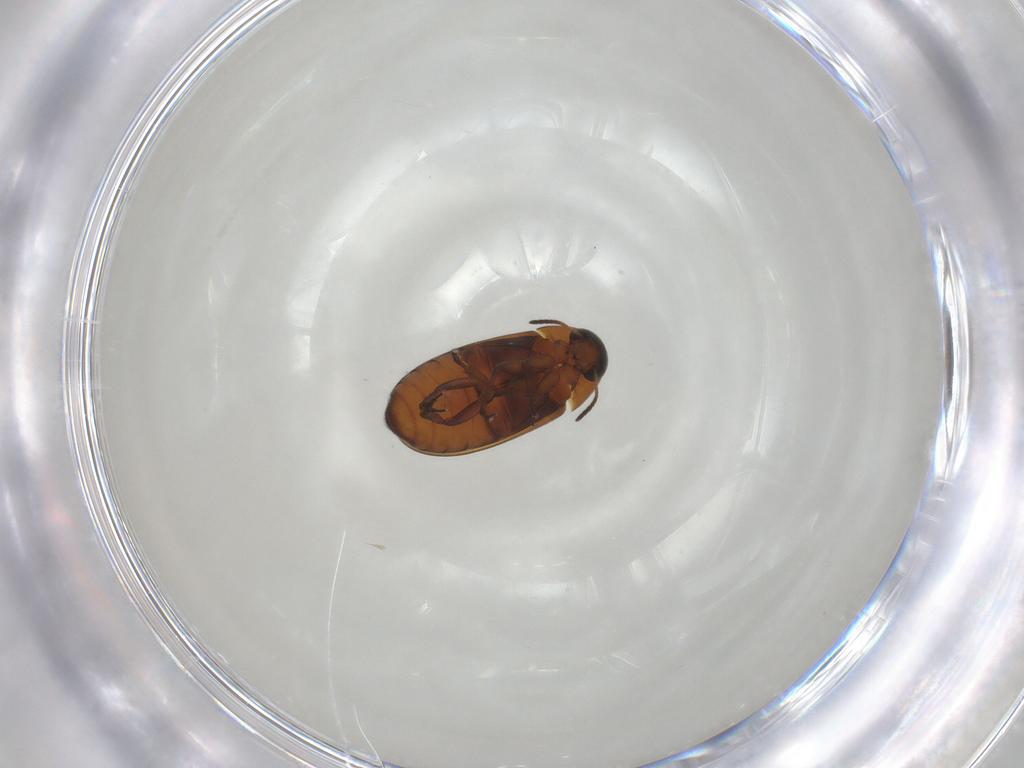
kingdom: Animalia
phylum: Arthropoda
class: Insecta
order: Coleoptera
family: Scraptiidae
